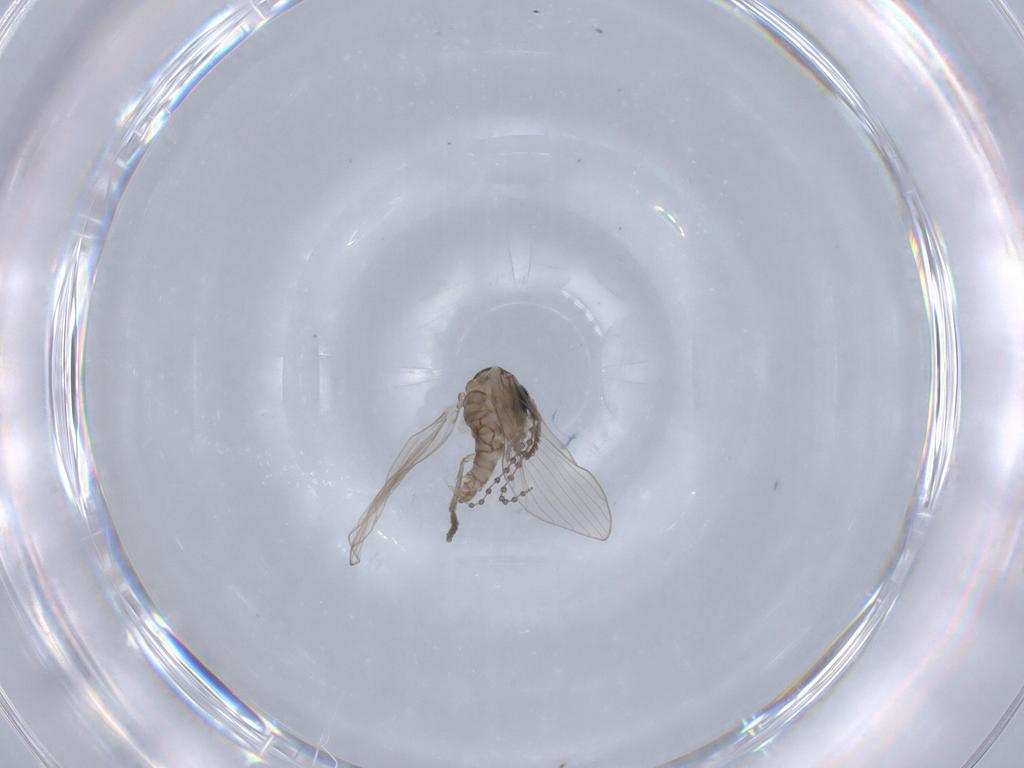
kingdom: Animalia
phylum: Arthropoda
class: Insecta
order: Diptera
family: Psychodidae
